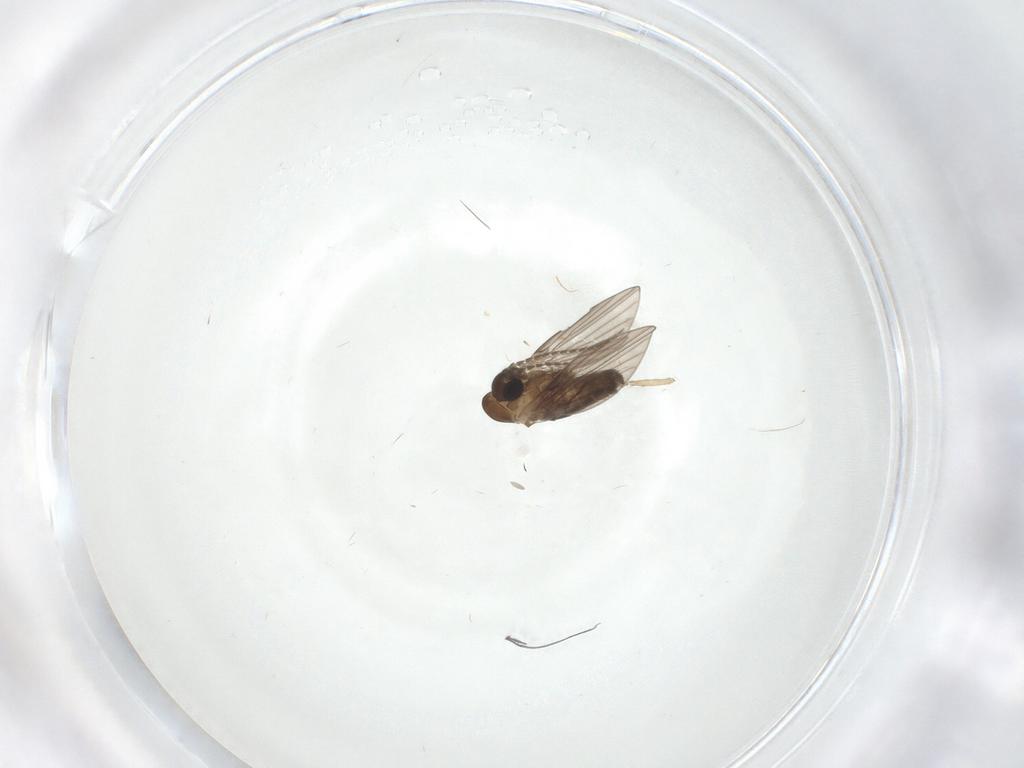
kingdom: Animalia
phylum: Arthropoda
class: Insecta
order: Diptera
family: Psychodidae
